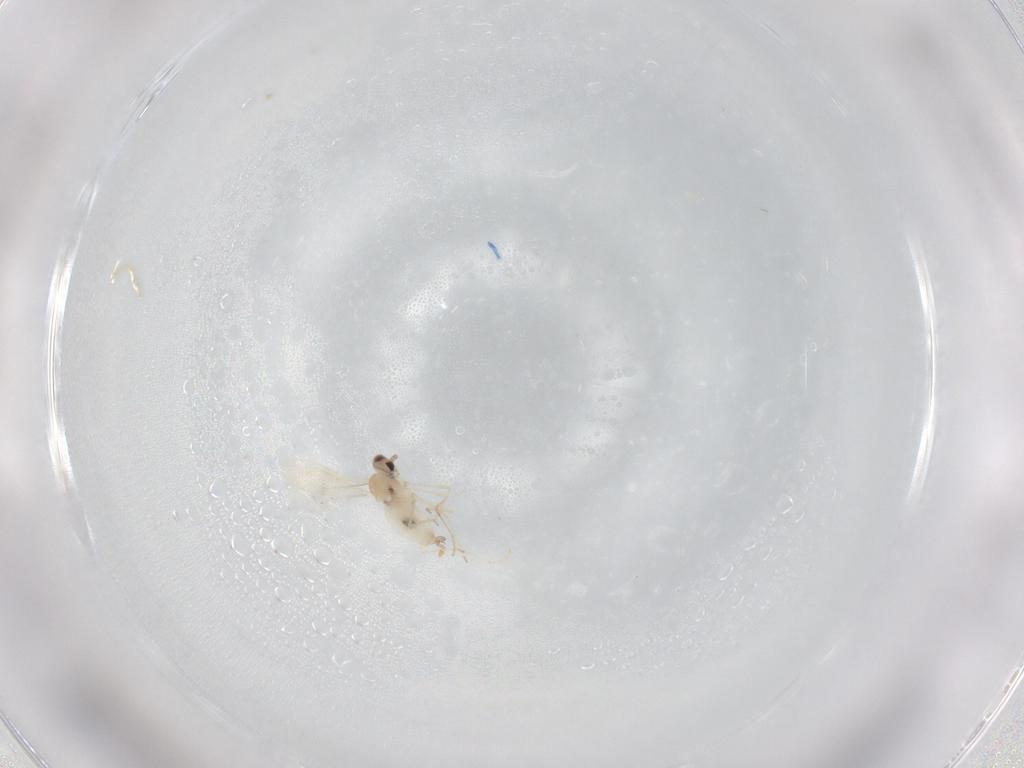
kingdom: Animalia
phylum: Arthropoda
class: Insecta
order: Diptera
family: Cecidomyiidae
